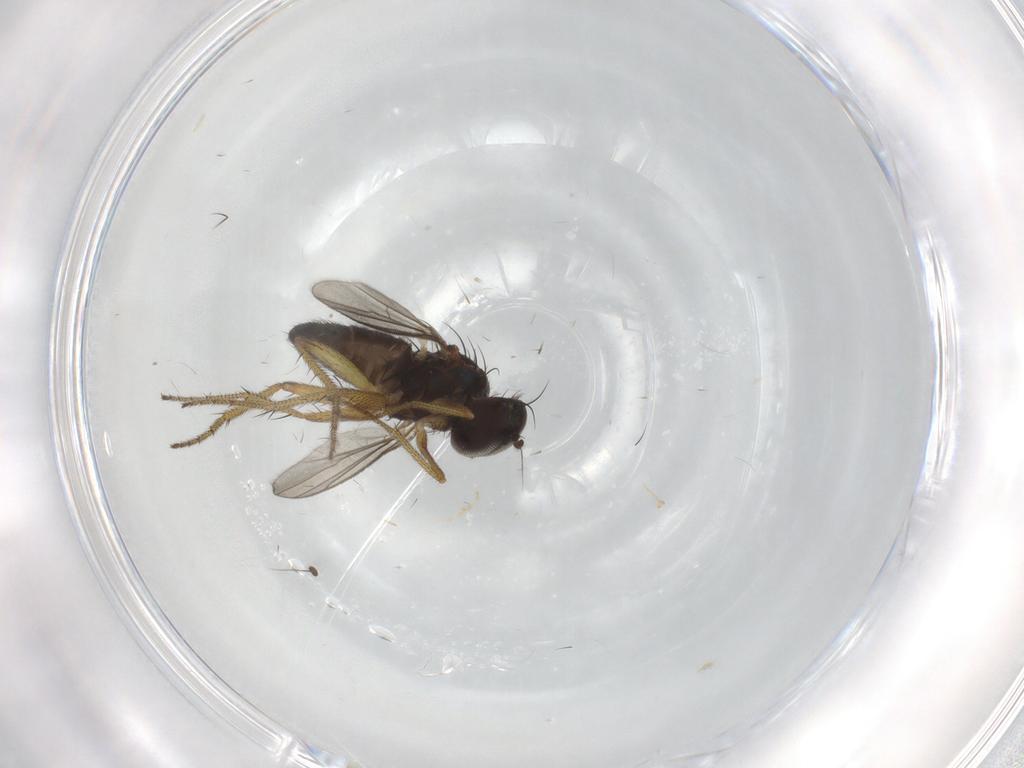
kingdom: Animalia
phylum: Arthropoda
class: Insecta
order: Diptera
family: Chironomidae
